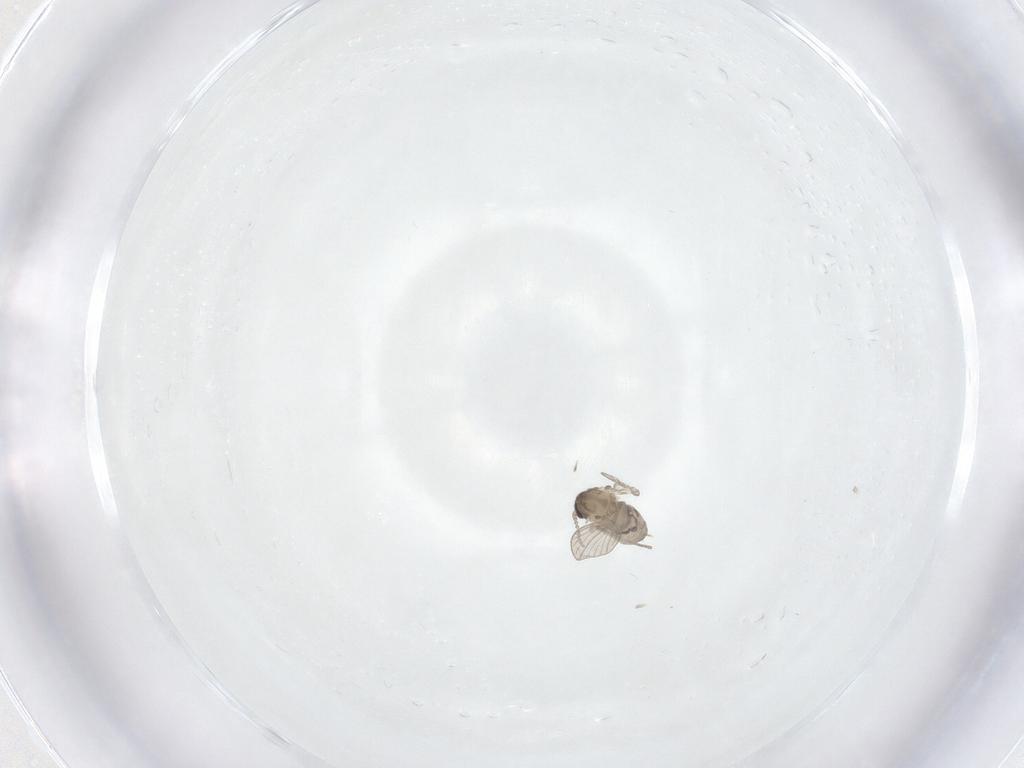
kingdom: Animalia
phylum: Arthropoda
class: Insecta
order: Diptera
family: Psychodidae
